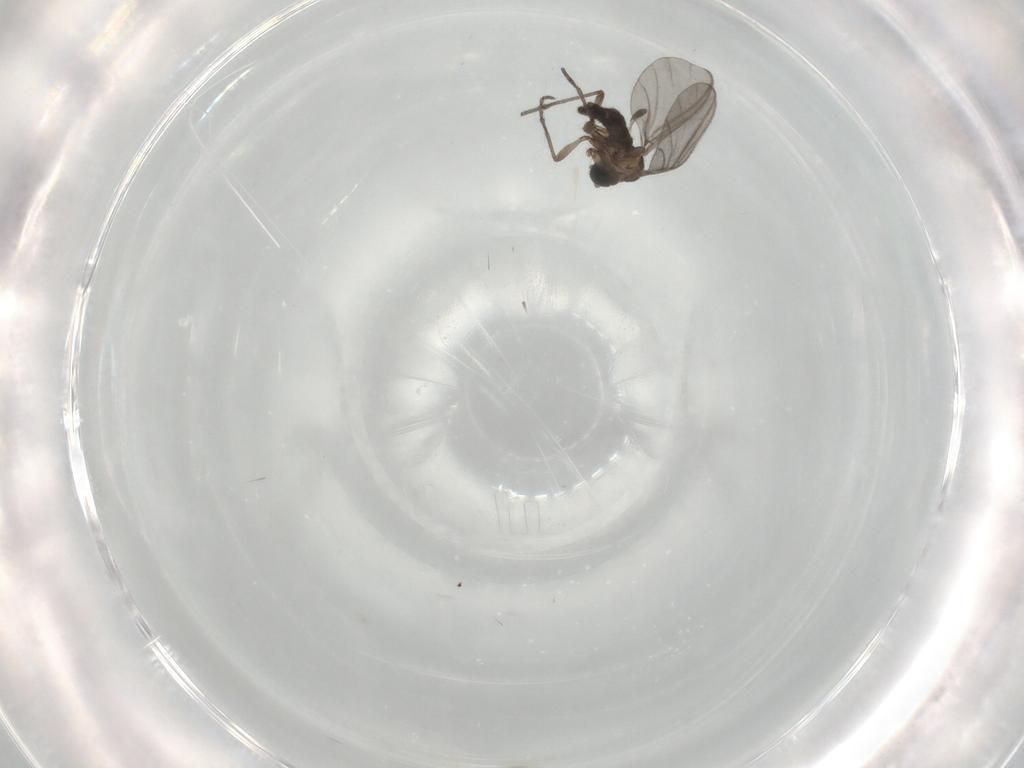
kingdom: Animalia
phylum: Arthropoda
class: Insecta
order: Diptera
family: Sciaridae
